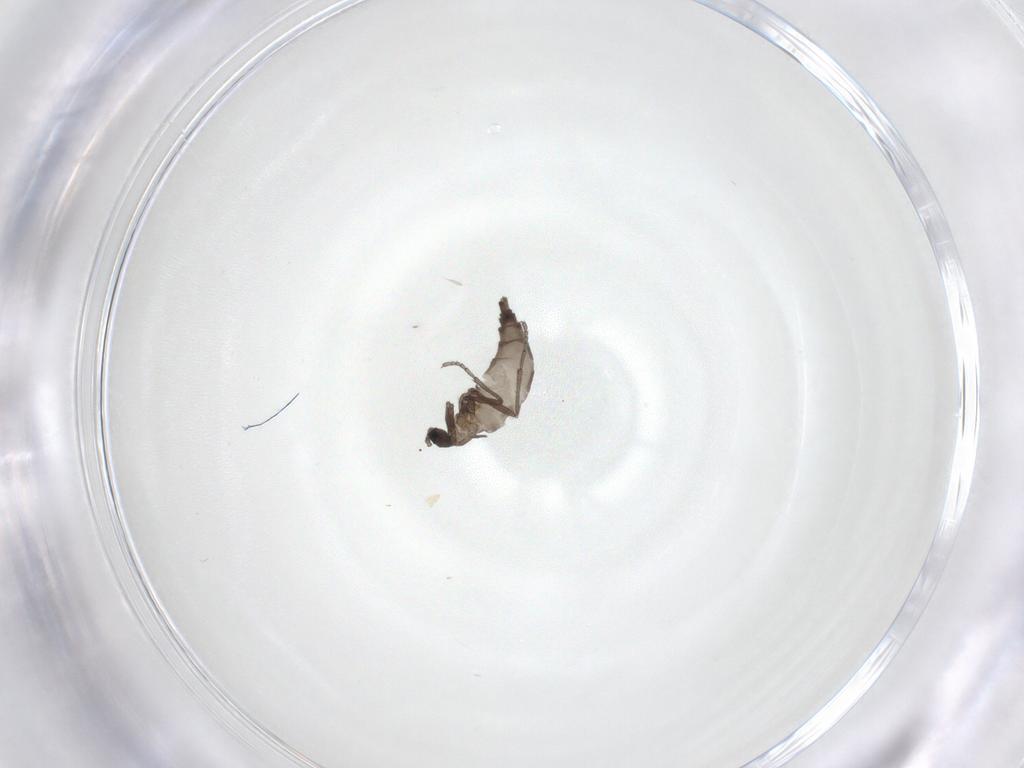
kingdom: Animalia
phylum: Arthropoda
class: Insecta
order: Diptera
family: Sciaridae
